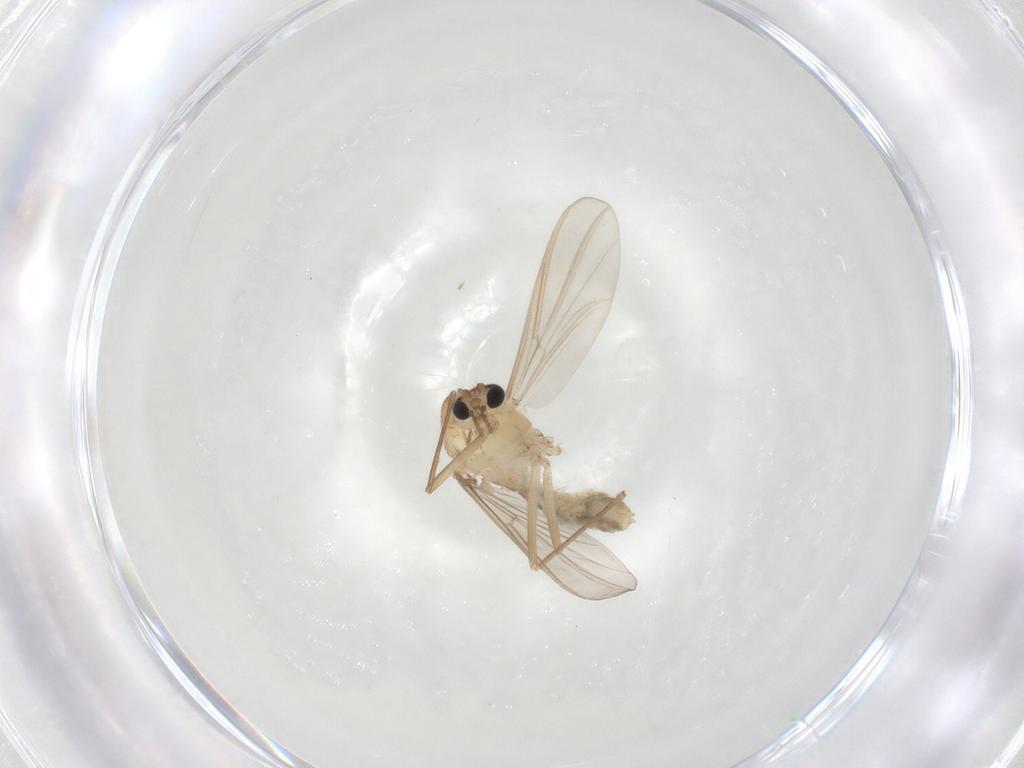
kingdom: Animalia
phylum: Arthropoda
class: Insecta
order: Diptera
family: Chironomidae
